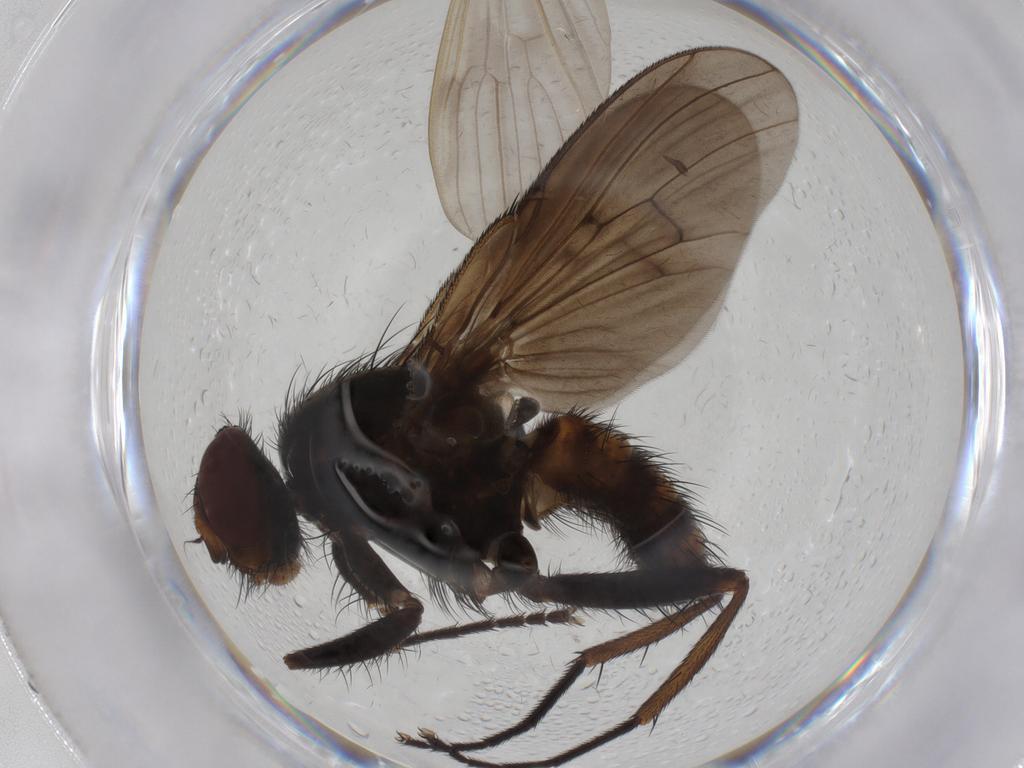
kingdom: Animalia
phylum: Arthropoda
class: Insecta
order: Diptera
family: Muscidae
